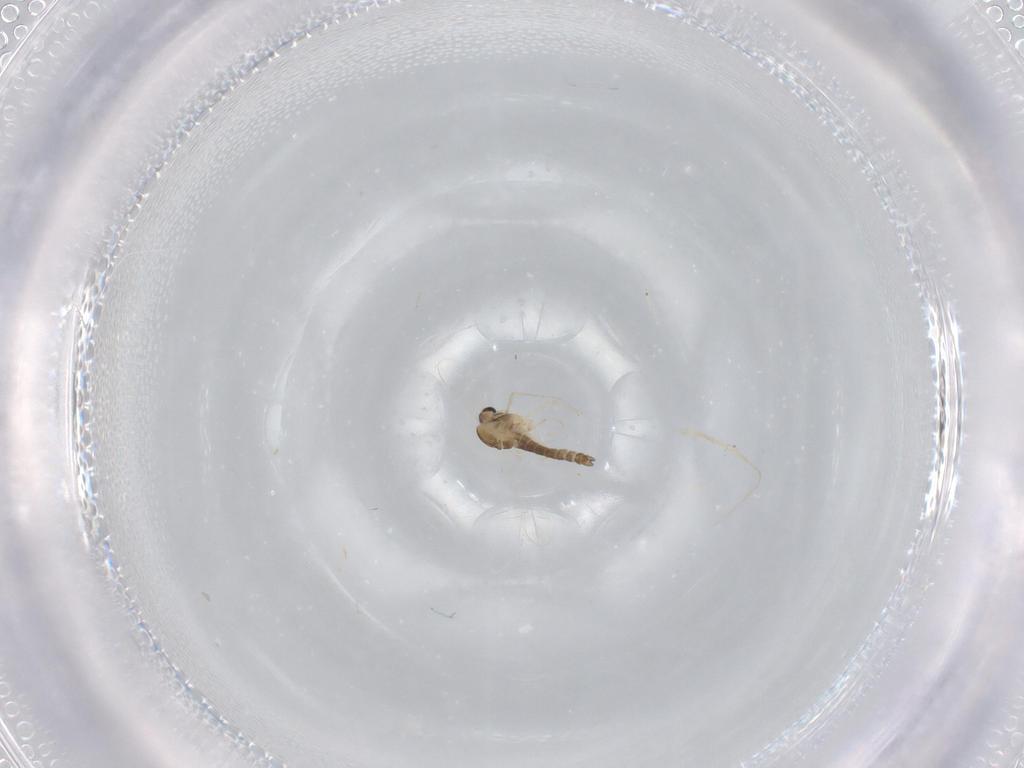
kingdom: Animalia
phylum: Arthropoda
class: Insecta
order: Diptera
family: Chironomidae
